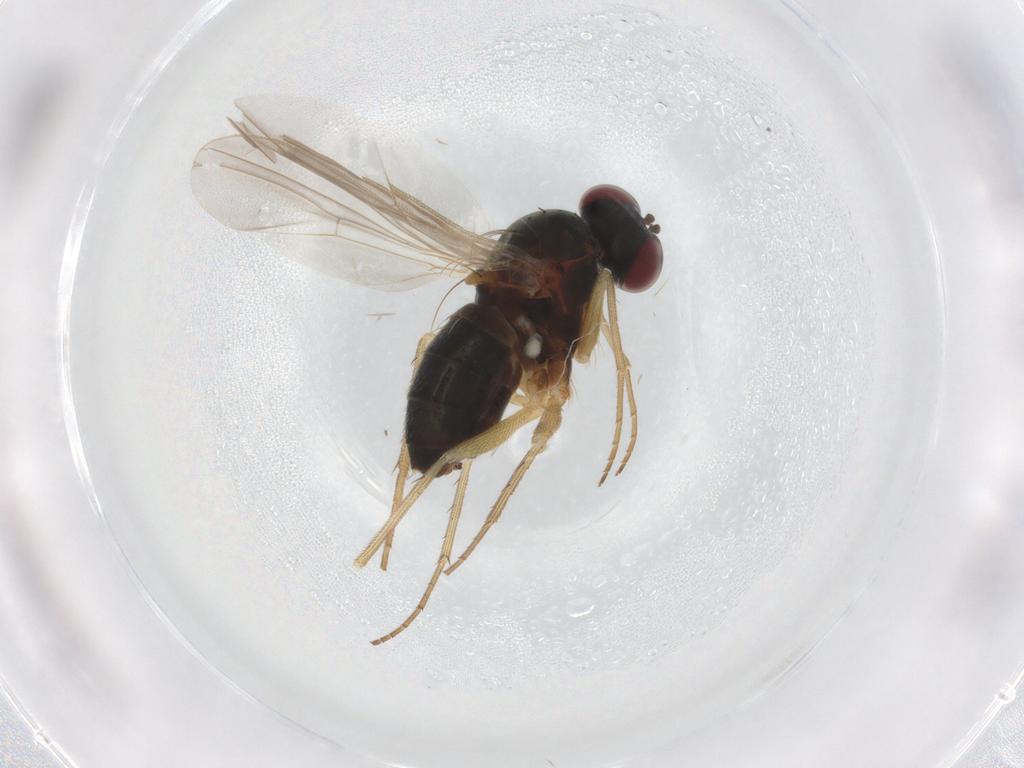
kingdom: Animalia
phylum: Arthropoda
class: Insecta
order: Diptera
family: Dolichopodidae
